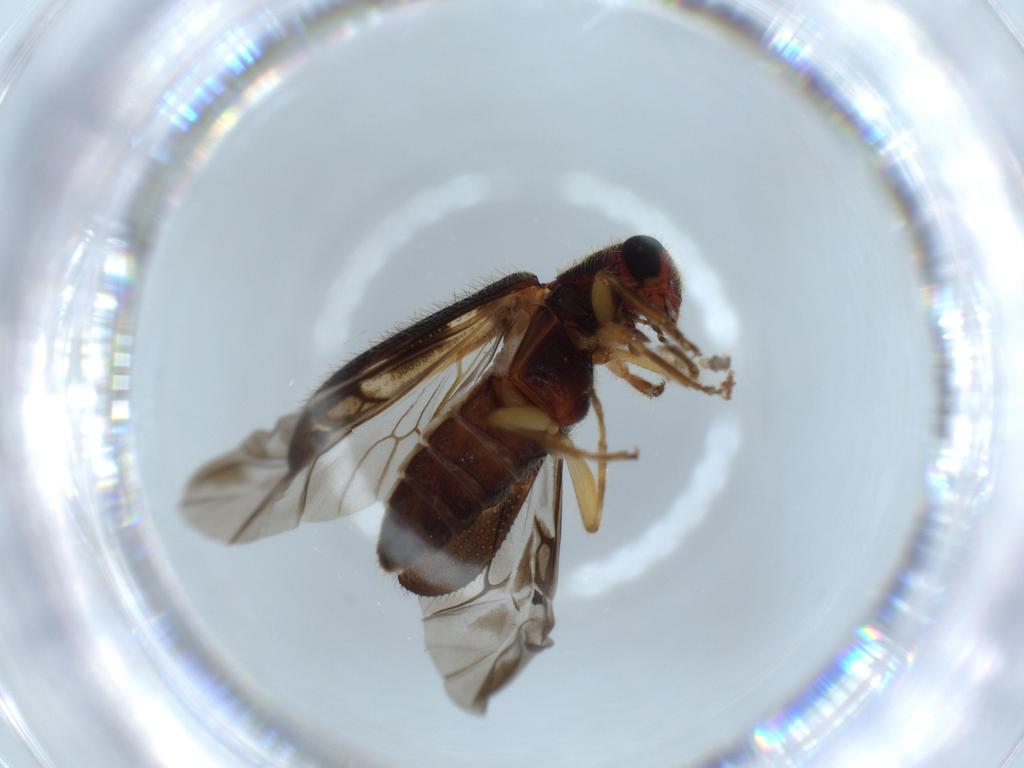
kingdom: Animalia
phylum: Arthropoda
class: Insecta
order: Coleoptera
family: Cleridae
